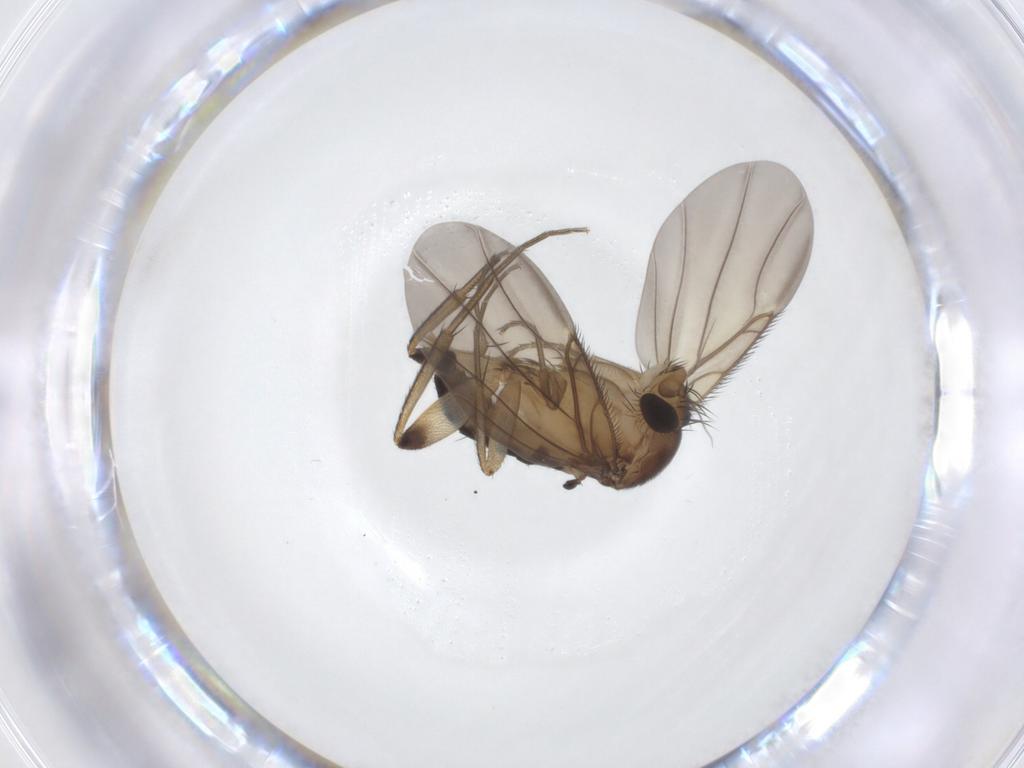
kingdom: Animalia
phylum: Arthropoda
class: Insecta
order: Diptera
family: Phoridae
